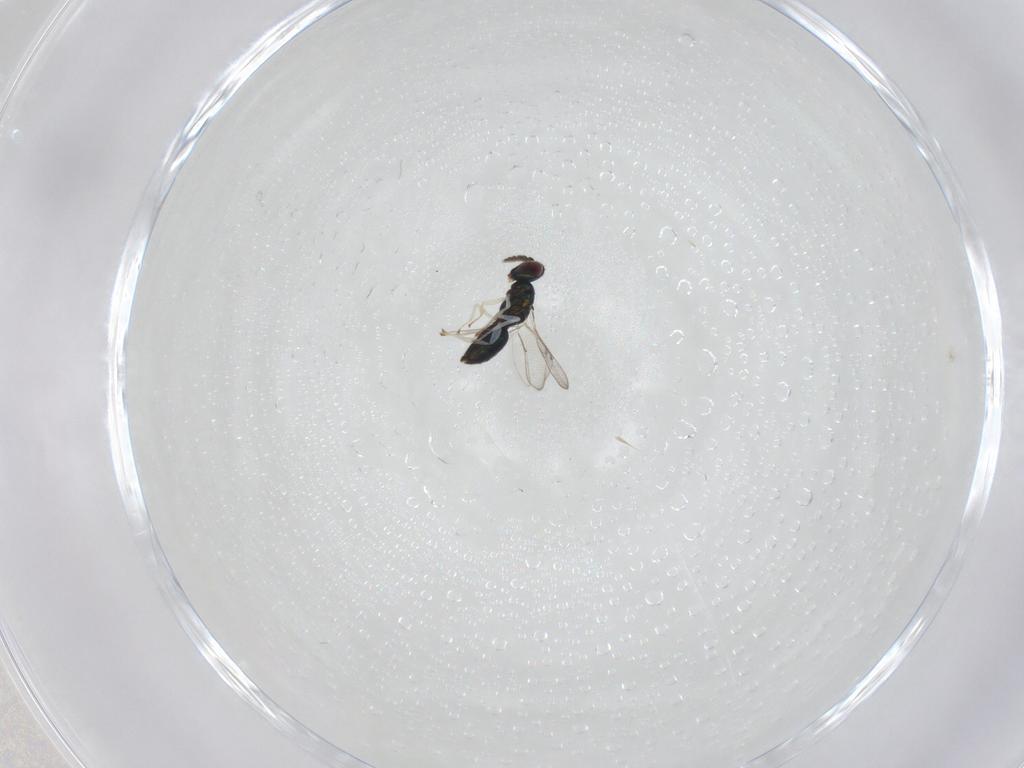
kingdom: Animalia
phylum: Arthropoda
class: Insecta
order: Hymenoptera
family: Eulophidae
